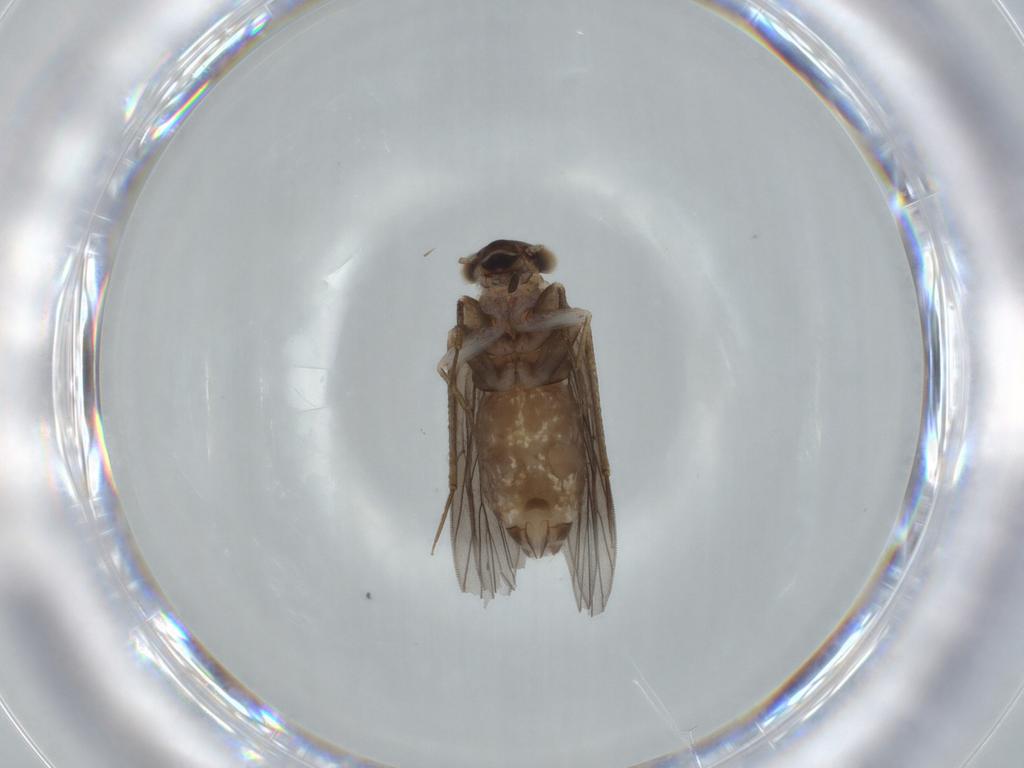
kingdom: Animalia
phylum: Arthropoda
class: Insecta
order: Psocodea
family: Lepidopsocidae
